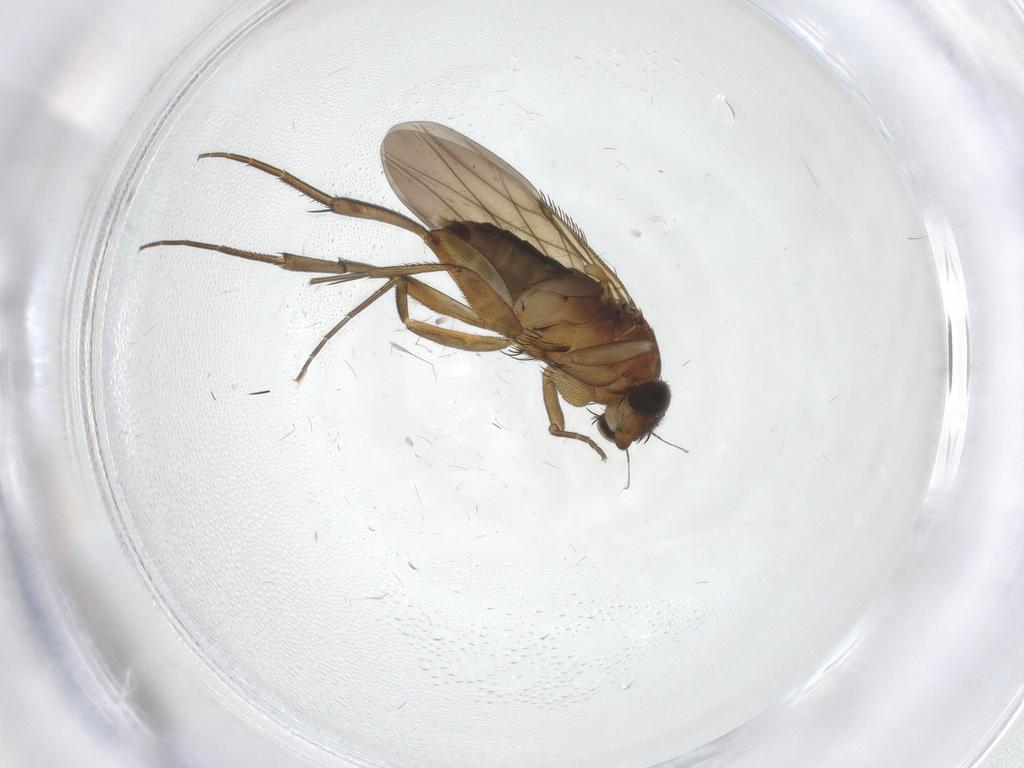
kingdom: Animalia
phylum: Arthropoda
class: Insecta
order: Diptera
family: Phoridae
